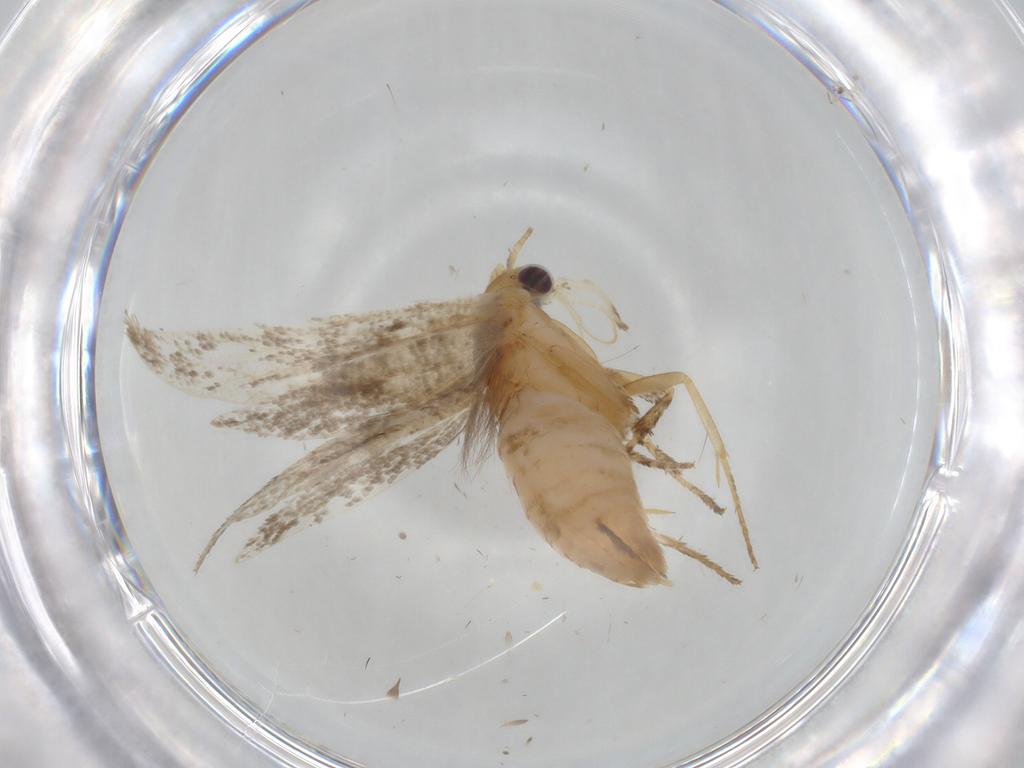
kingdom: Animalia
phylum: Arthropoda
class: Insecta
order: Lepidoptera
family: Plutellidae
